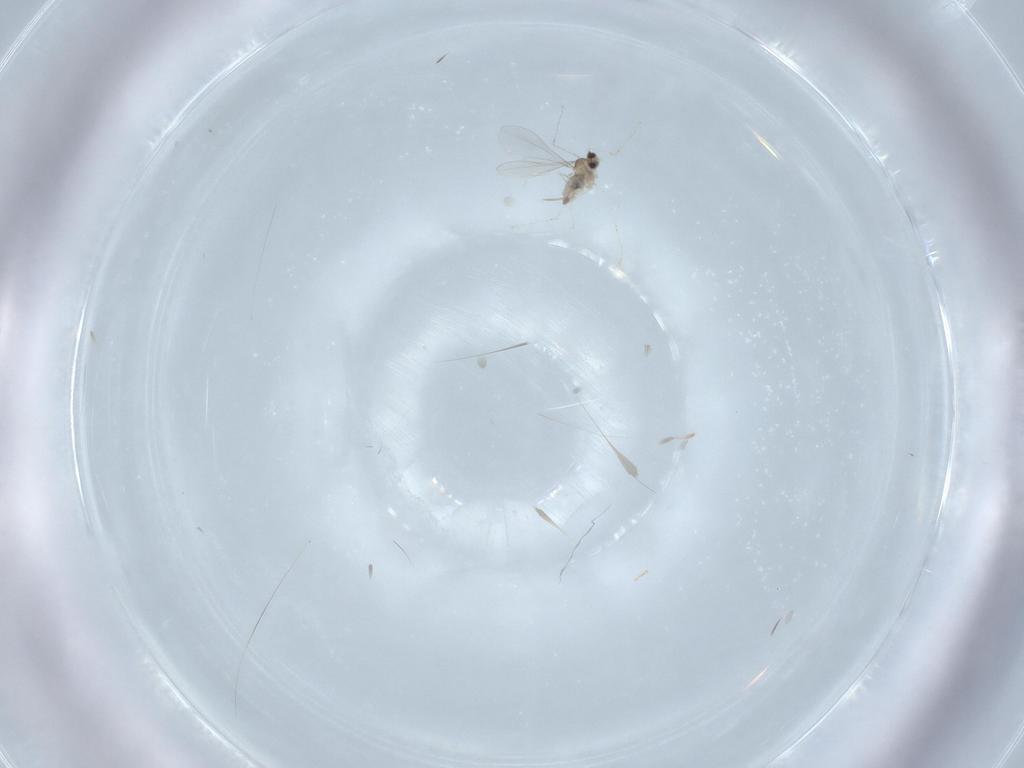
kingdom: Animalia
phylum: Arthropoda
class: Insecta
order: Diptera
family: Cecidomyiidae
